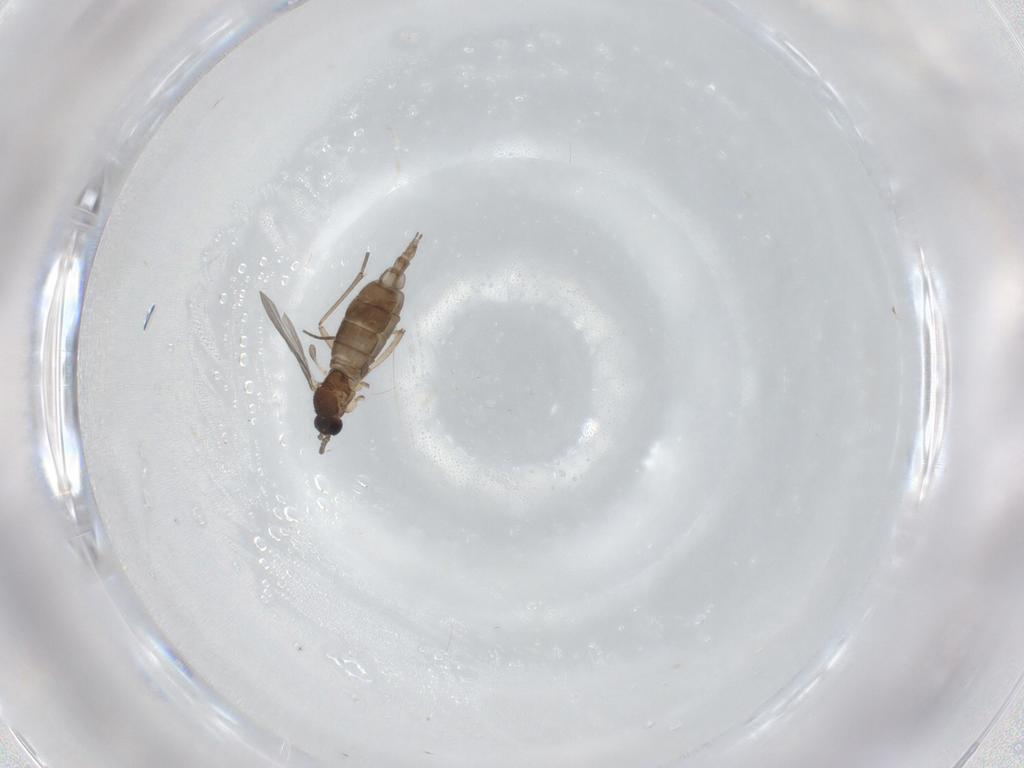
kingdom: Animalia
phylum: Arthropoda
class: Insecta
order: Diptera
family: Sciaridae
